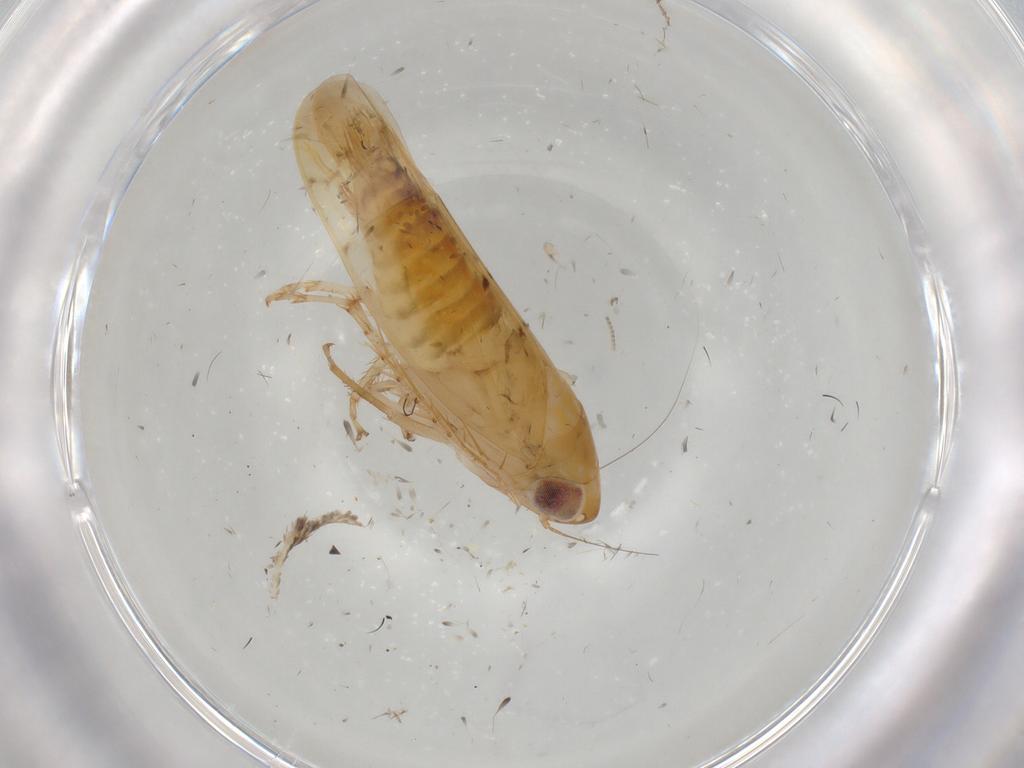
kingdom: Animalia
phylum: Arthropoda
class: Insecta
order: Hemiptera
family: Cicadellidae
